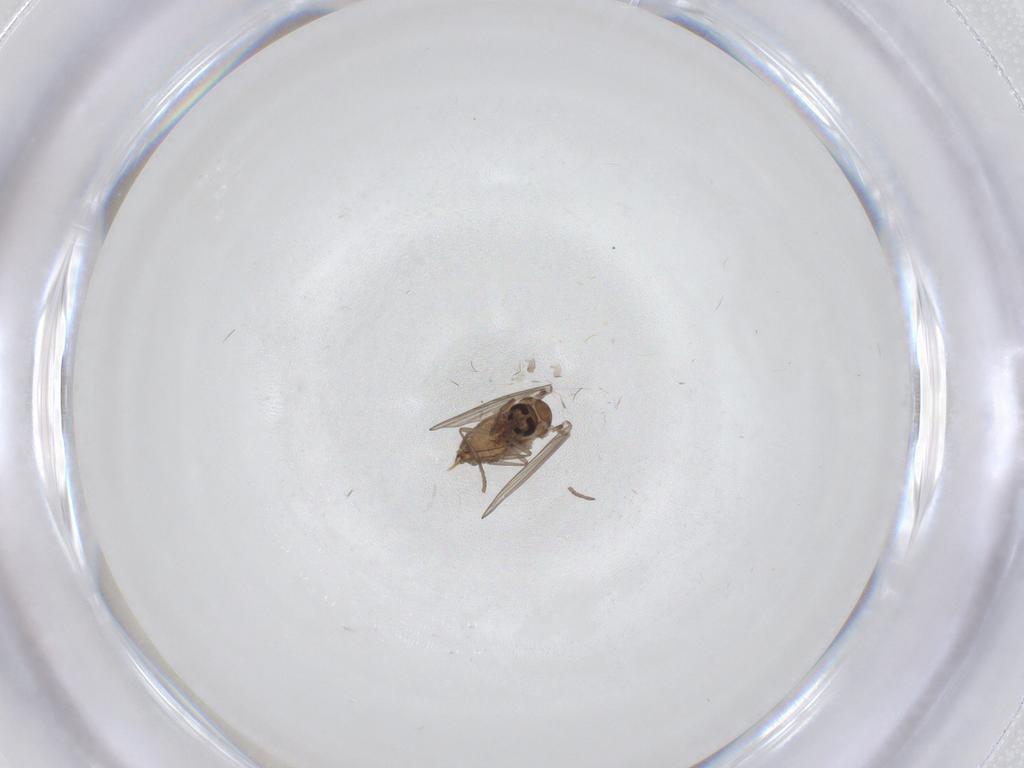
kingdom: Animalia
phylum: Arthropoda
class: Insecta
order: Diptera
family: Psychodidae
